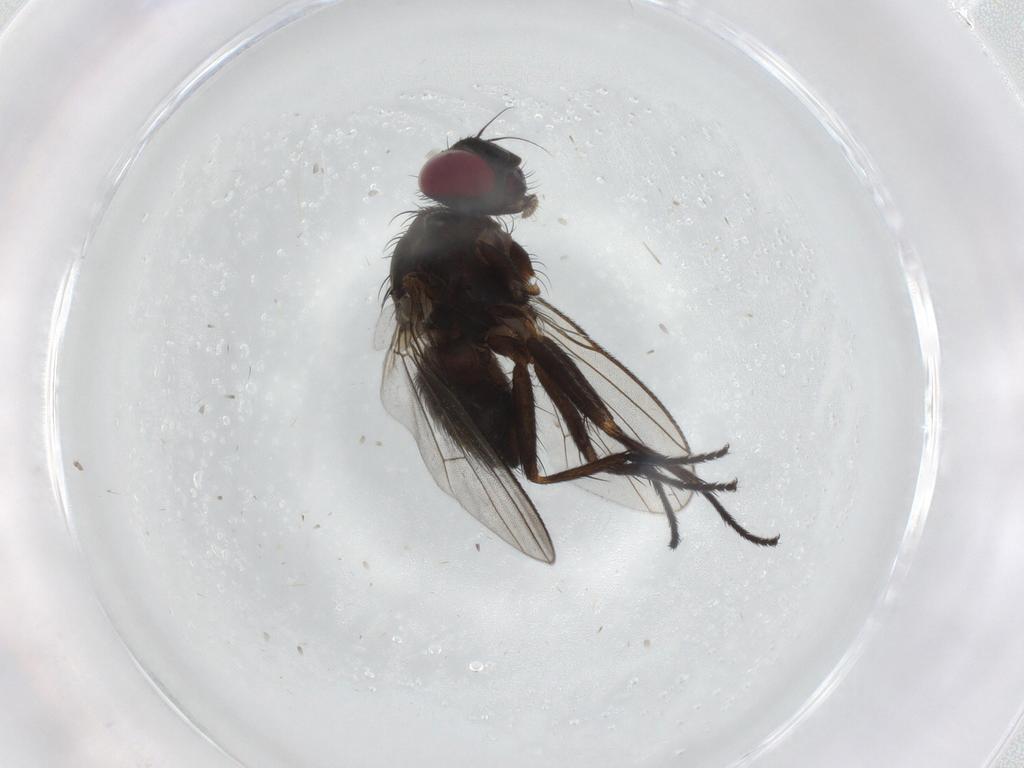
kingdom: Animalia
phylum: Arthropoda
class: Insecta
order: Diptera
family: Muscidae
